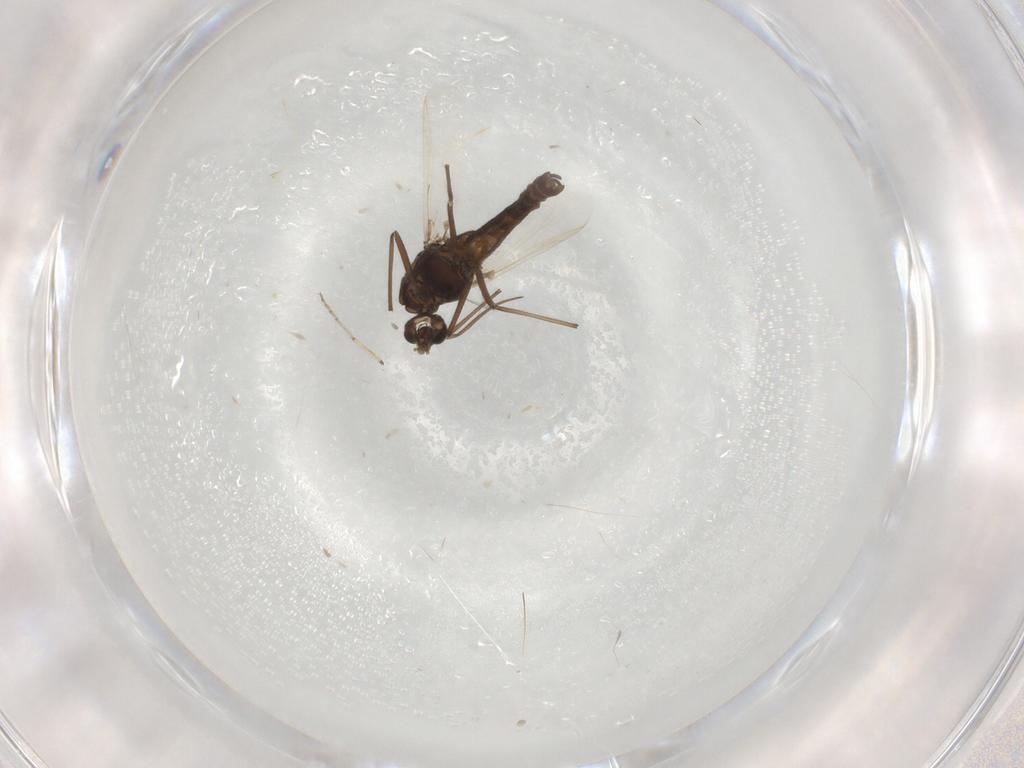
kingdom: Animalia
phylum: Arthropoda
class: Insecta
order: Diptera
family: Chironomidae
